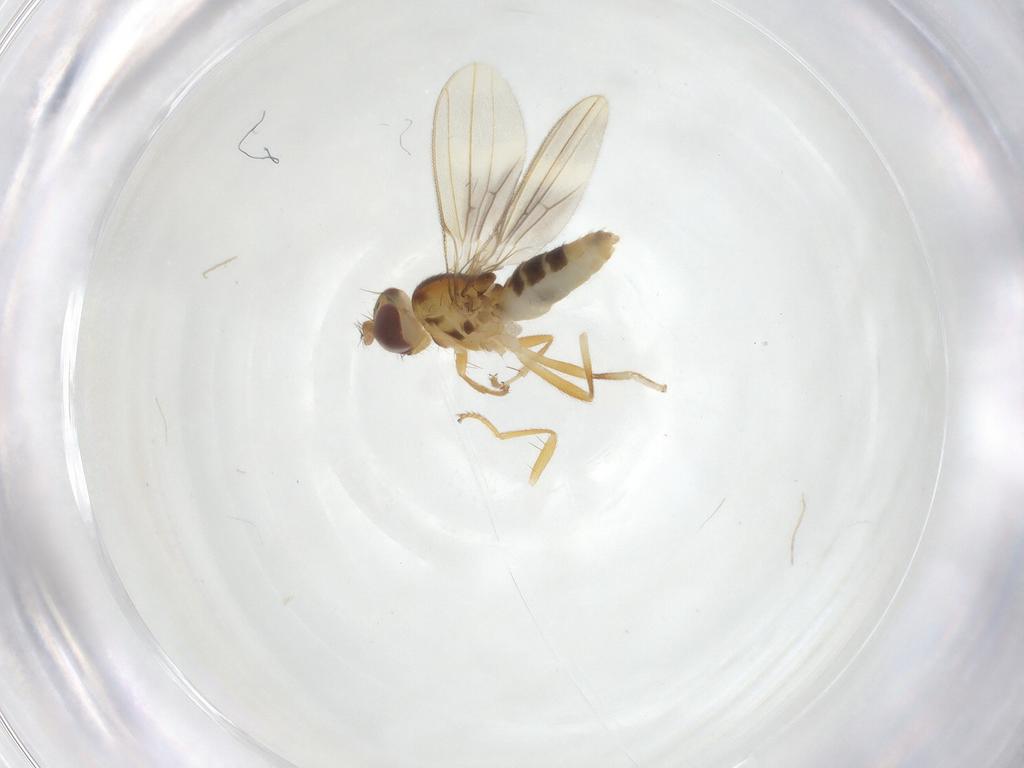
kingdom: Animalia
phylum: Arthropoda
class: Insecta
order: Diptera
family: Periscelididae
